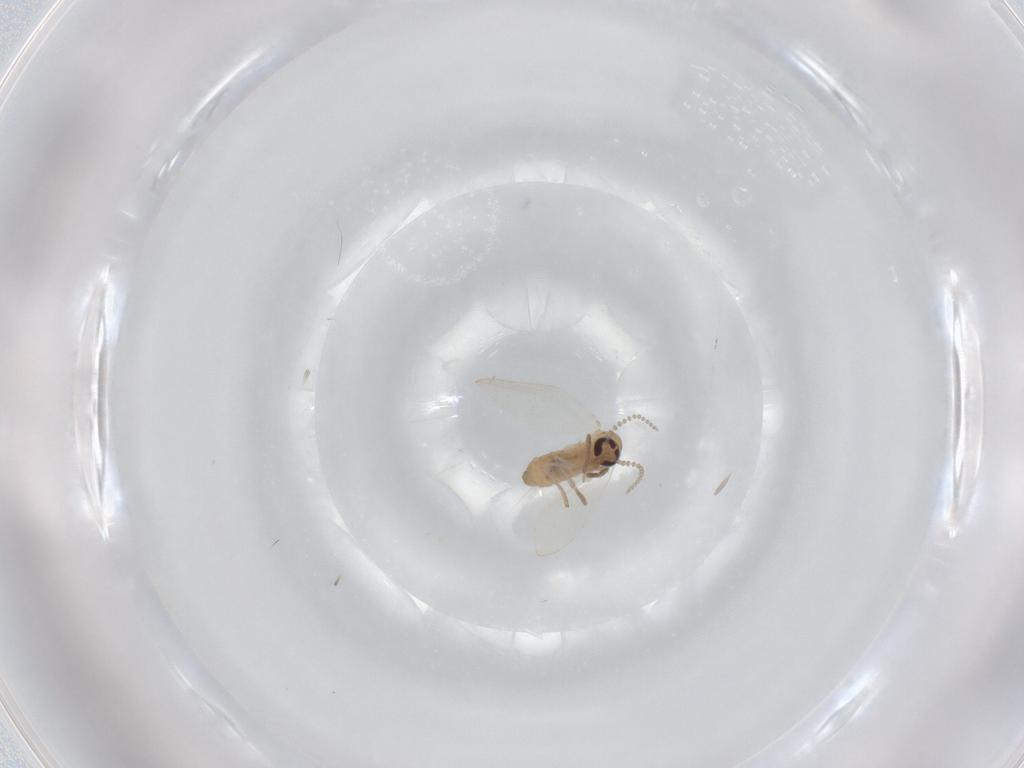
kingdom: Animalia
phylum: Arthropoda
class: Insecta
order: Diptera
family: Psychodidae
